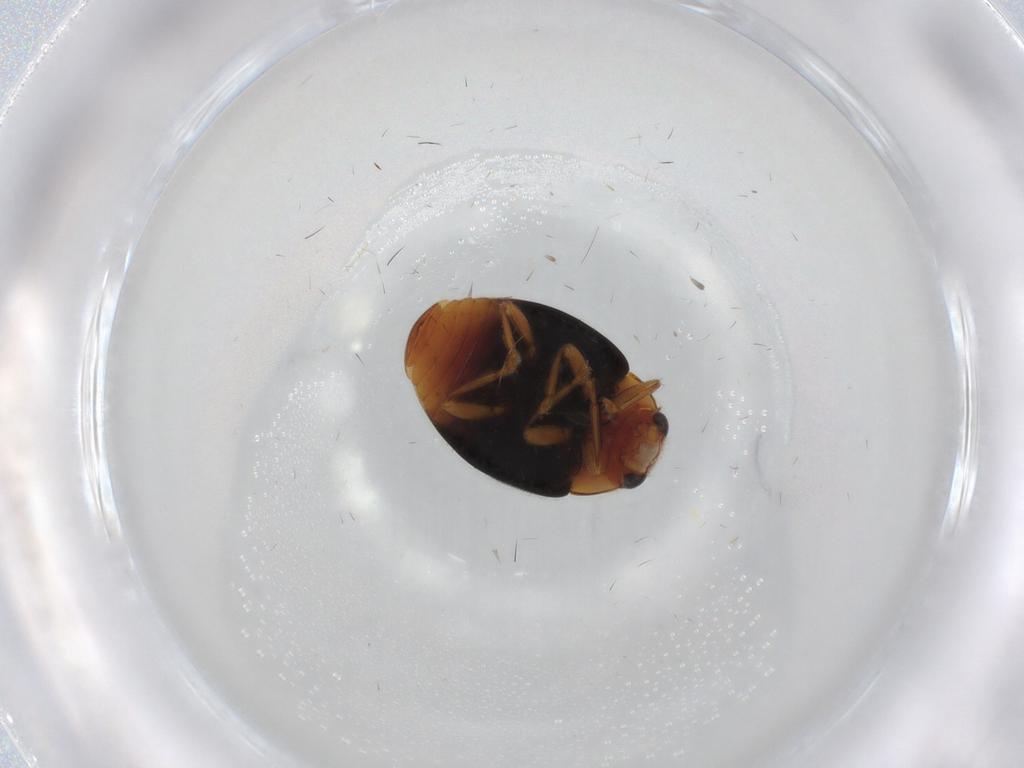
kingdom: Animalia
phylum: Arthropoda
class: Insecta
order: Coleoptera
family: Coccinellidae
